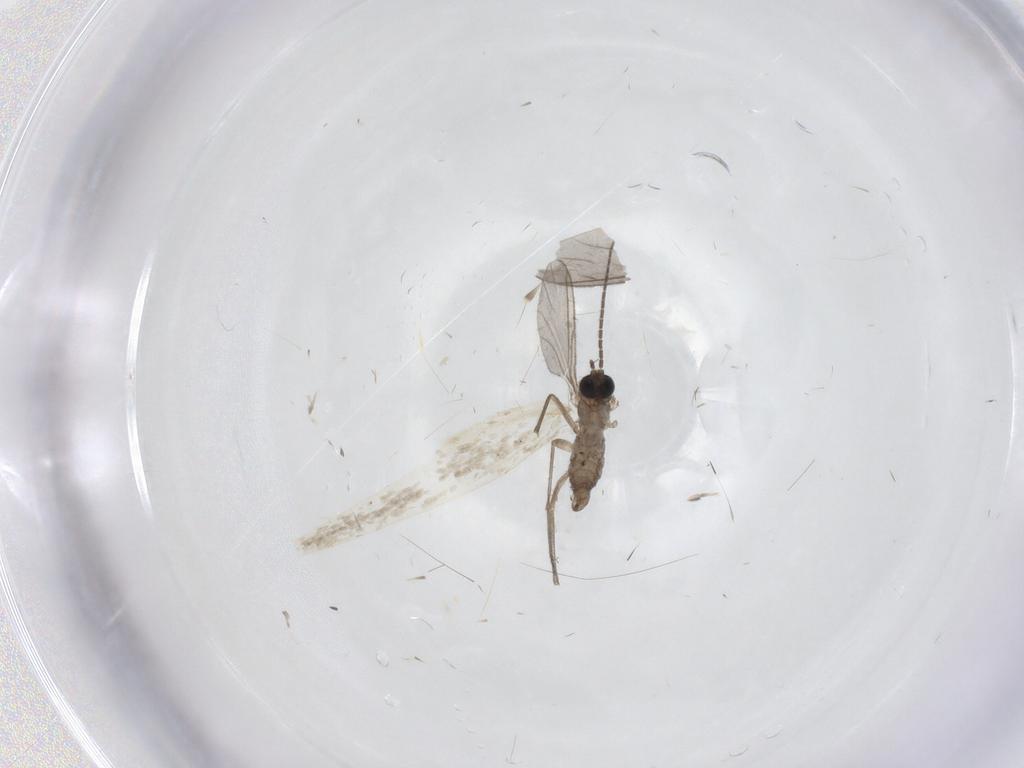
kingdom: Animalia
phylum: Arthropoda
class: Insecta
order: Diptera
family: Sciaridae
